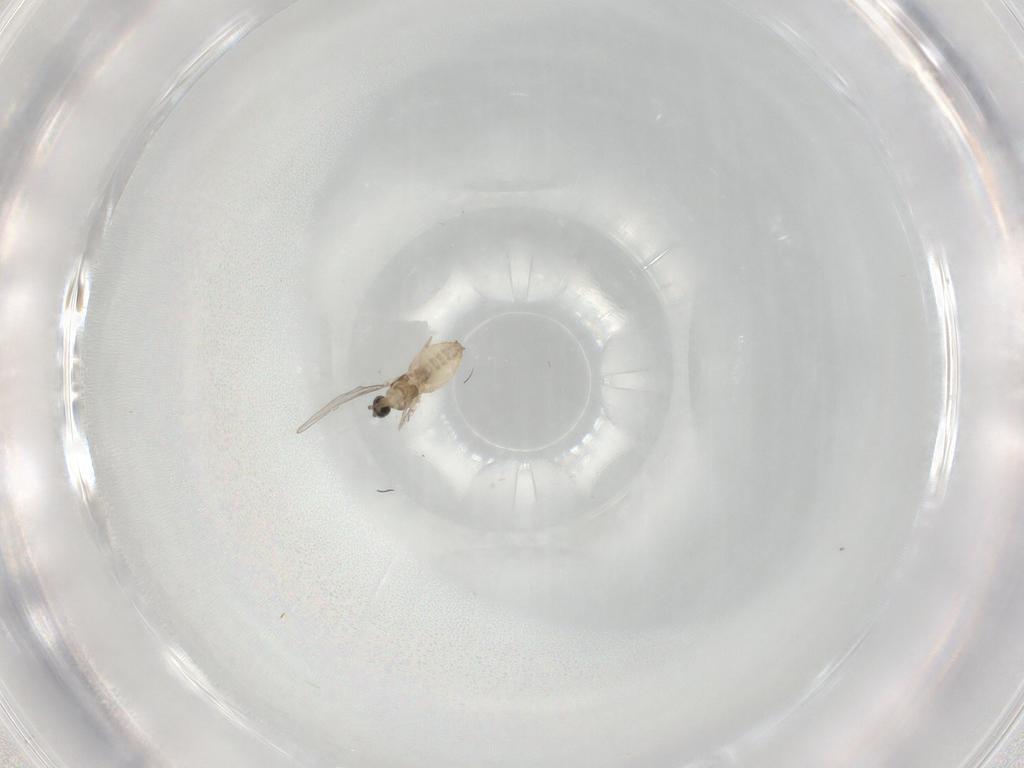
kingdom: Animalia
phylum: Arthropoda
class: Insecta
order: Diptera
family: Cecidomyiidae
